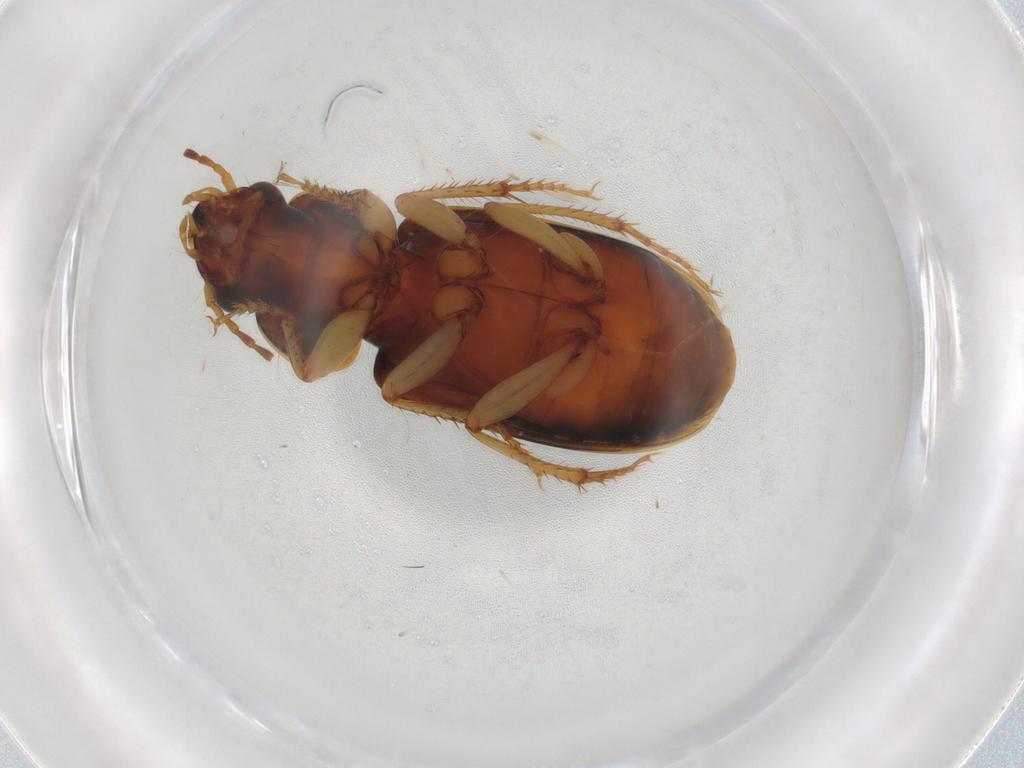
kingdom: Animalia
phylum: Arthropoda
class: Insecta
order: Coleoptera
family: Carabidae
